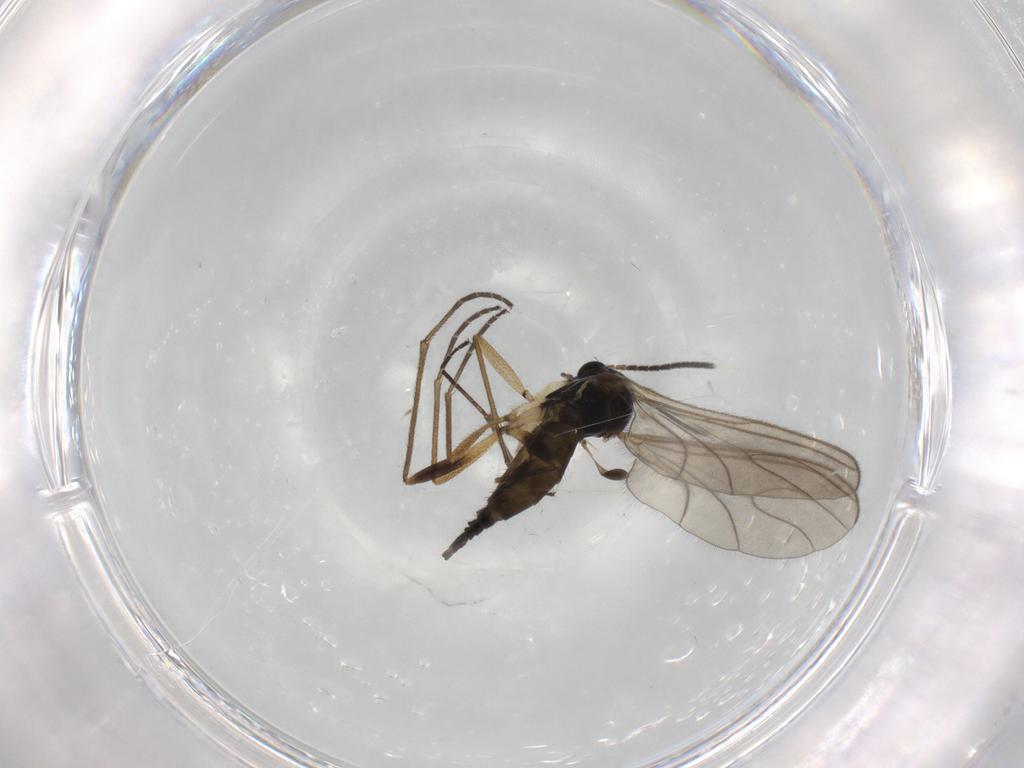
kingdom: Animalia
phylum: Arthropoda
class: Insecta
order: Diptera
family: Sciaridae
